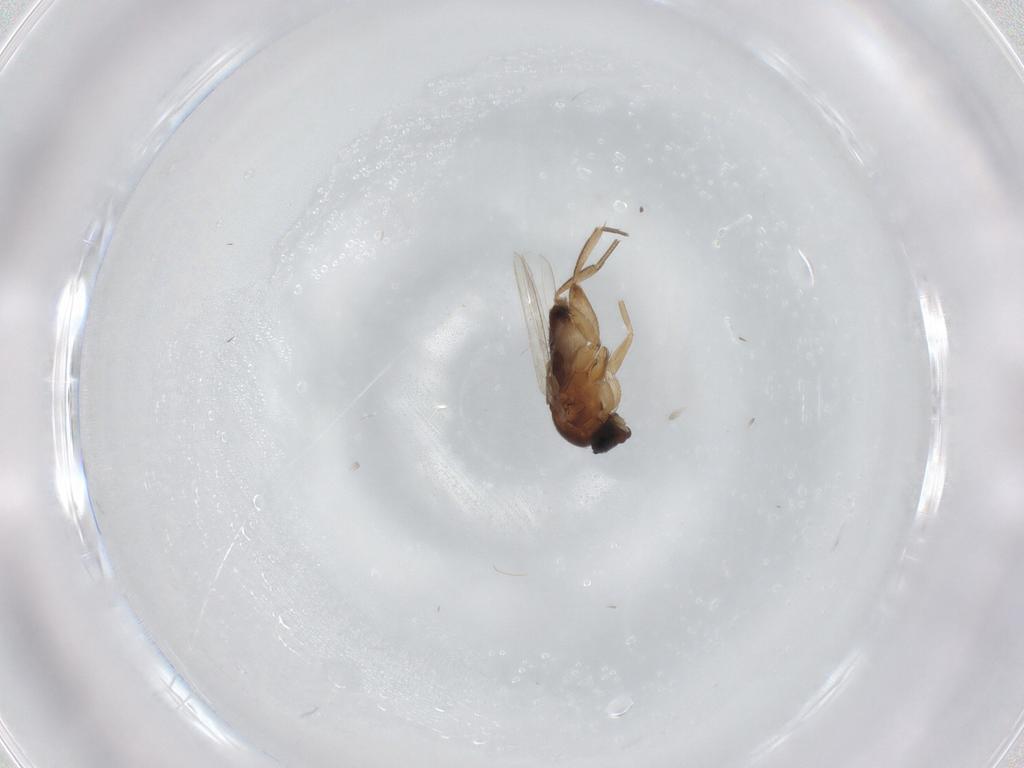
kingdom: Animalia
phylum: Arthropoda
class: Insecta
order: Diptera
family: Phoridae
